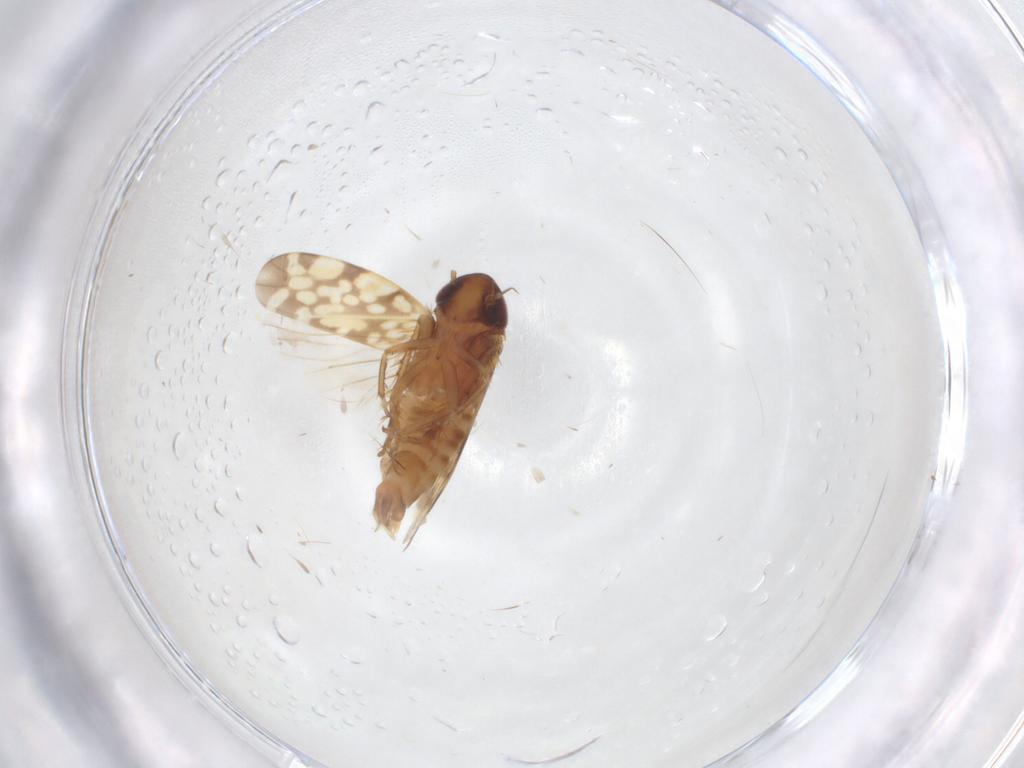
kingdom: Animalia
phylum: Arthropoda
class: Insecta
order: Hemiptera
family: Cicadellidae
